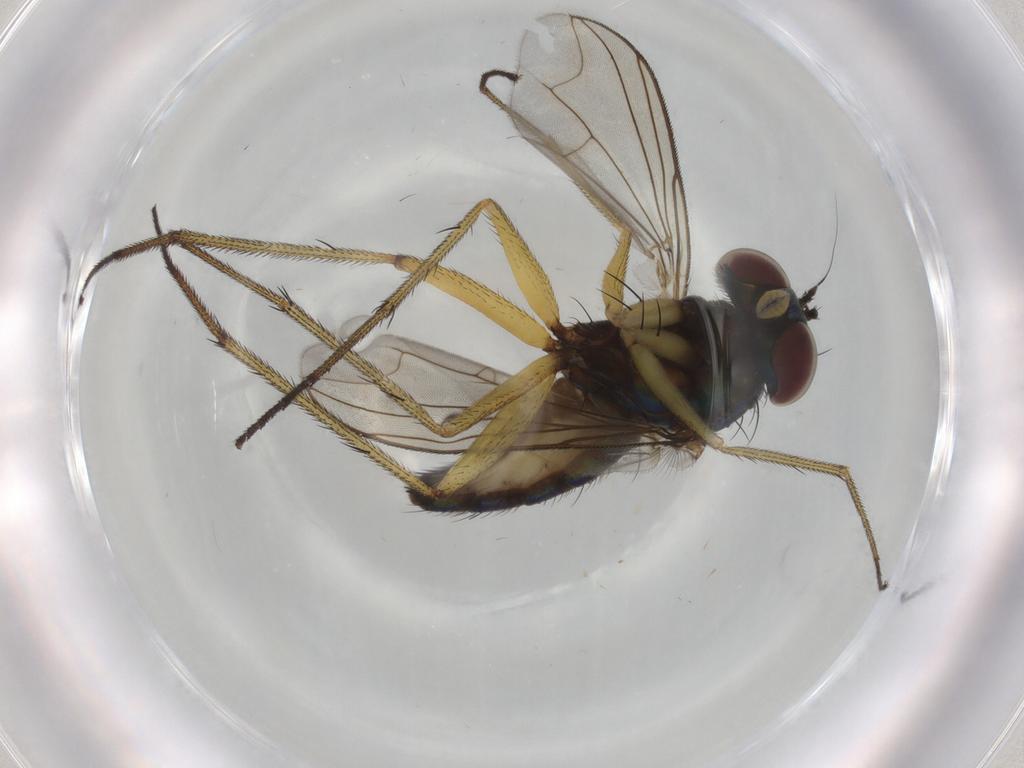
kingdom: Animalia
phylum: Arthropoda
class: Insecta
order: Diptera
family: Dolichopodidae
